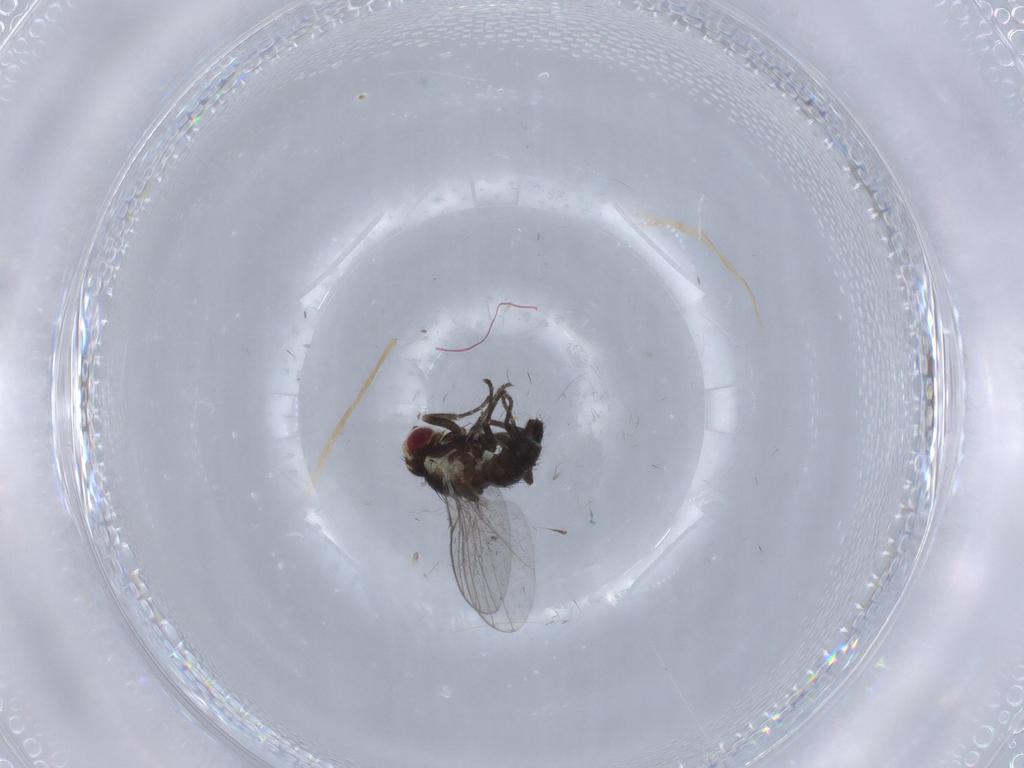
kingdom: Animalia
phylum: Arthropoda
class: Insecta
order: Diptera
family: Agromyzidae
